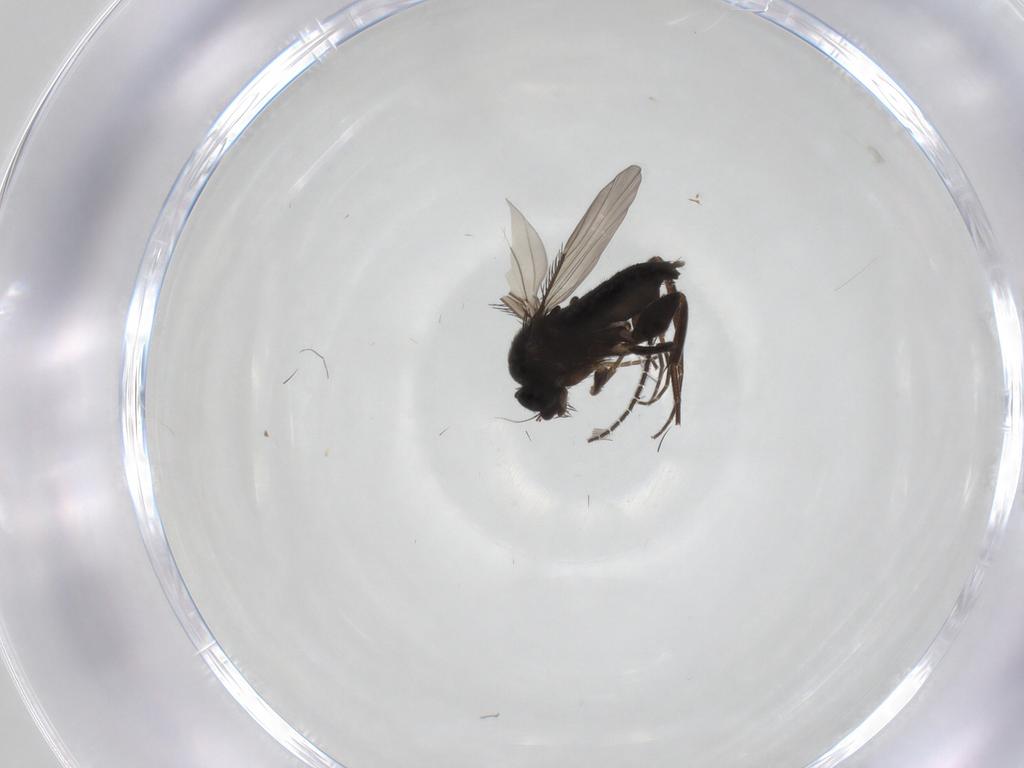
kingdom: Animalia
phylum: Arthropoda
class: Insecta
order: Diptera
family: Phoridae
